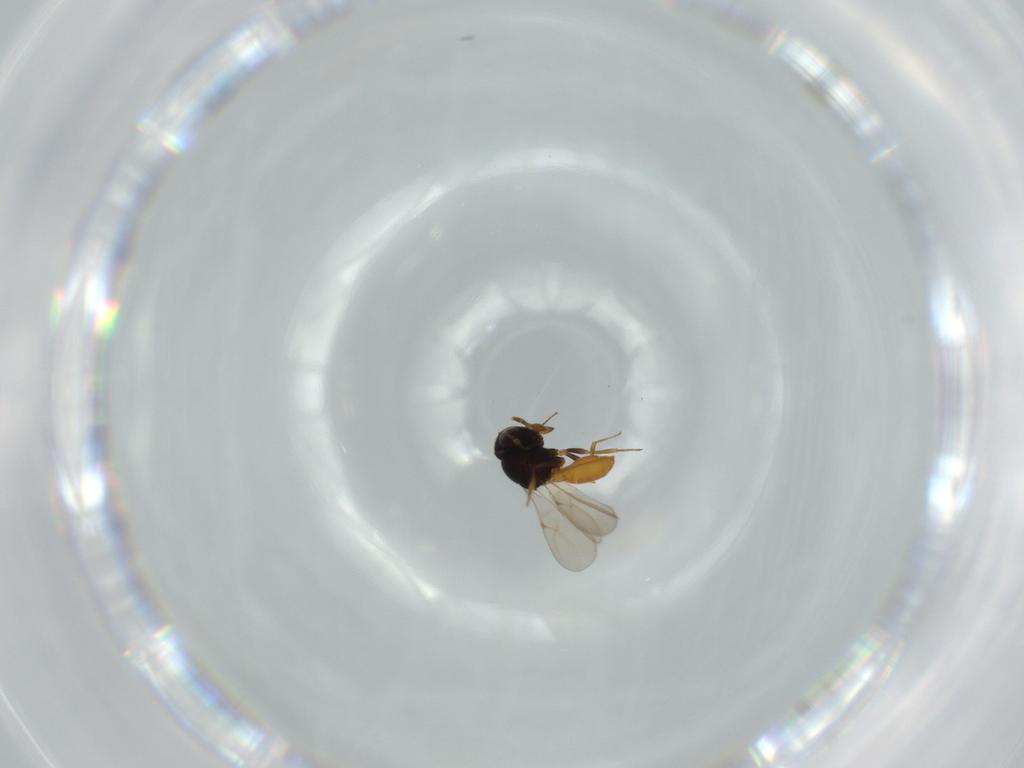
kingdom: Animalia
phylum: Arthropoda
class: Insecta
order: Hymenoptera
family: Scelionidae
